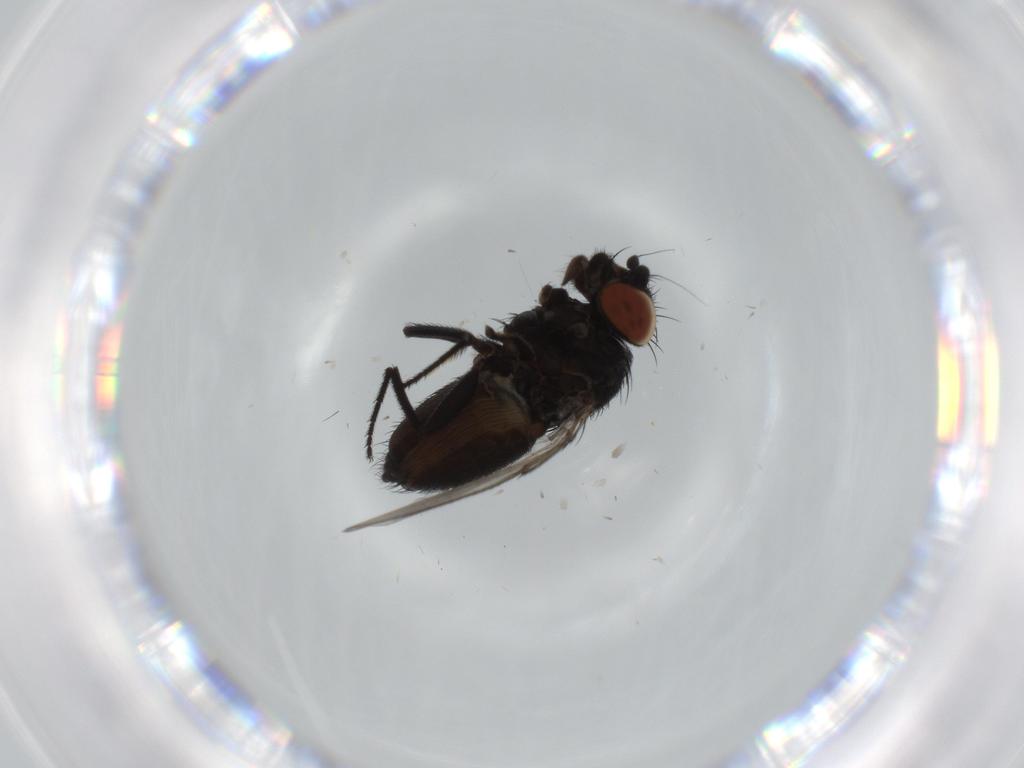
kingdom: Animalia
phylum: Arthropoda
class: Insecta
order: Diptera
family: Milichiidae
